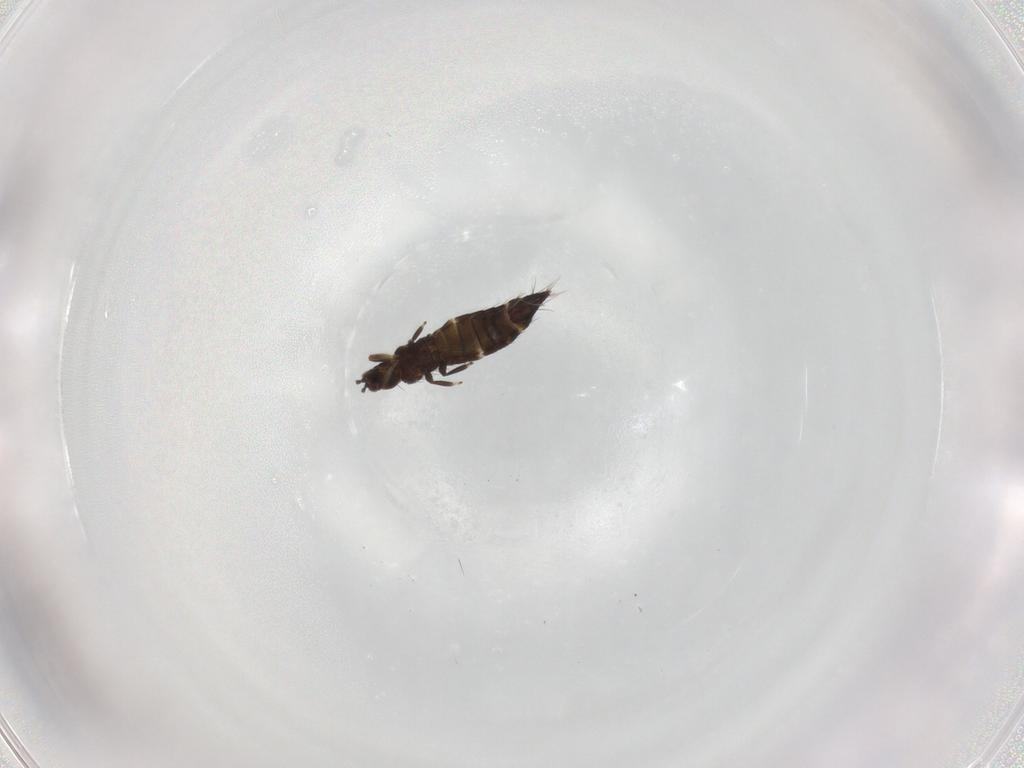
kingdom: Animalia
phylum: Arthropoda
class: Insecta
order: Thysanoptera
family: Thripidae
